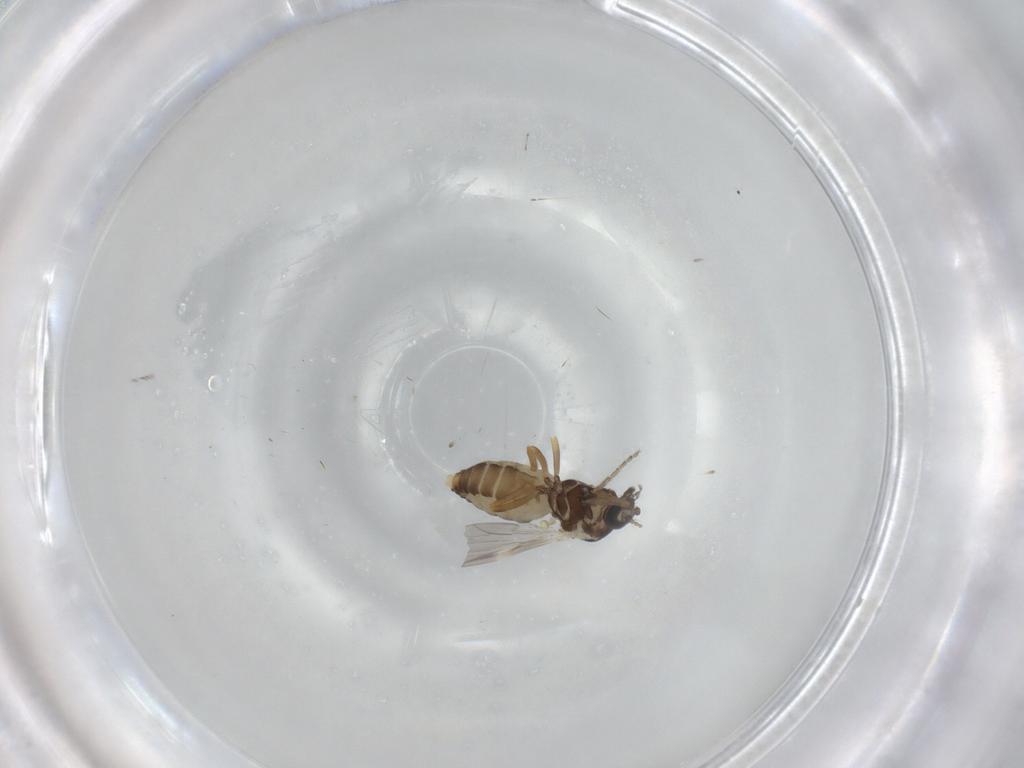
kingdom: Animalia
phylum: Arthropoda
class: Insecta
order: Diptera
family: Ceratopogonidae
